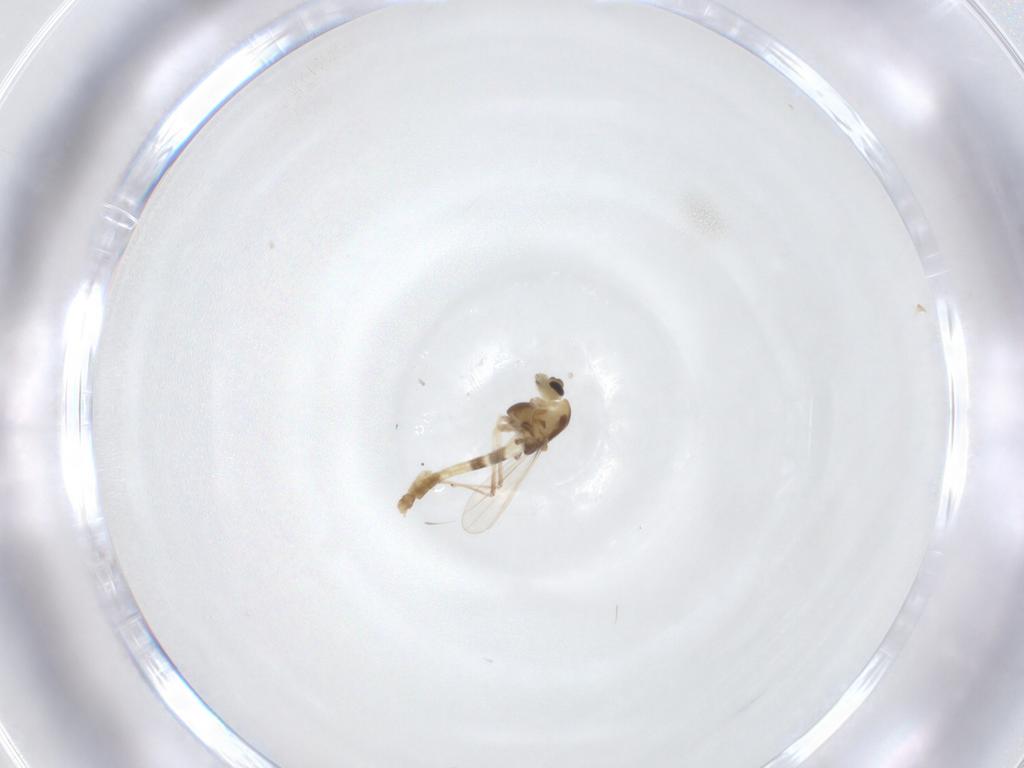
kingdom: Animalia
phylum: Arthropoda
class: Insecta
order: Diptera
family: Chironomidae
